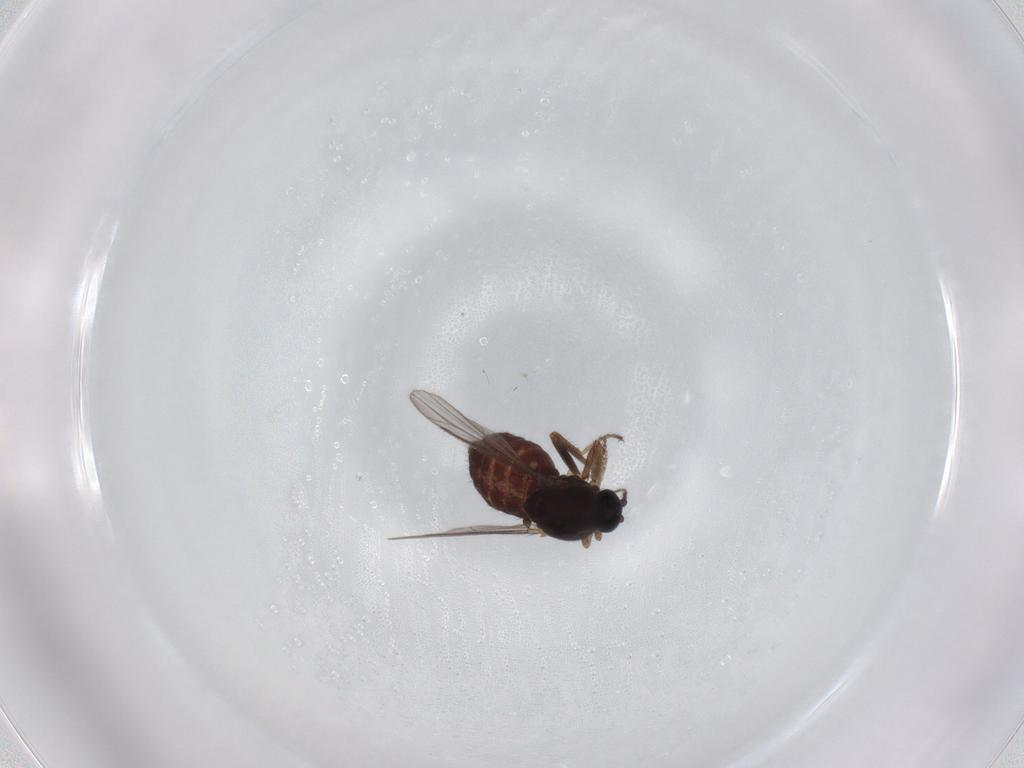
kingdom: Animalia
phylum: Arthropoda
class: Insecta
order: Diptera
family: Ceratopogonidae
